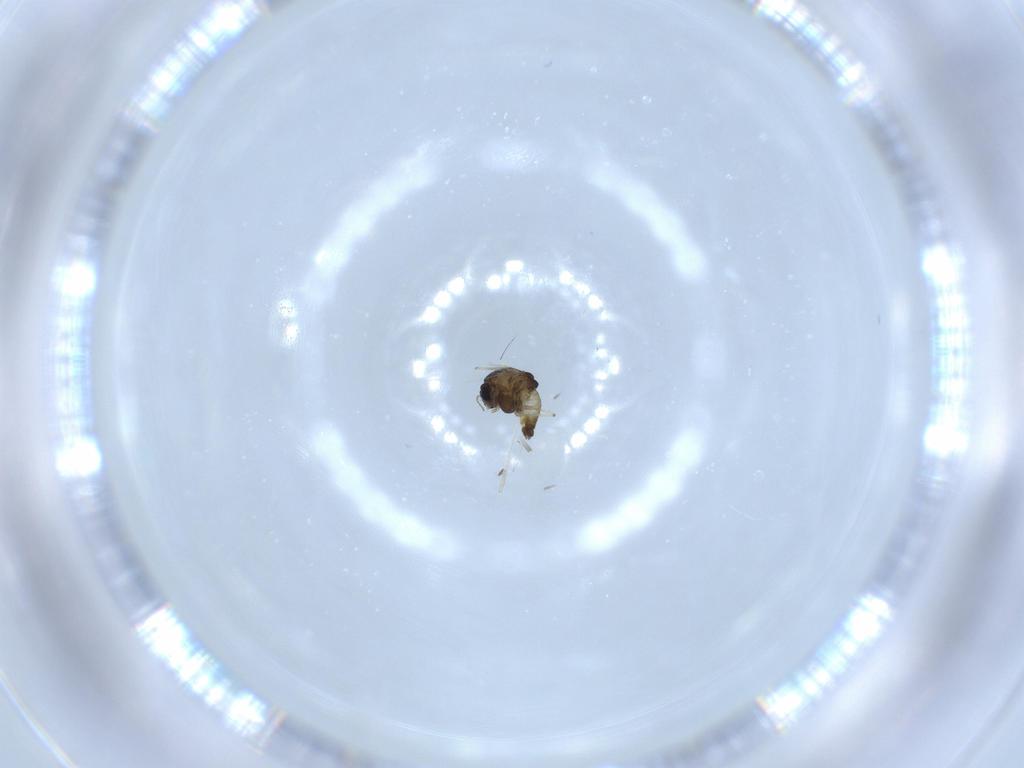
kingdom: Animalia
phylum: Arthropoda
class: Insecta
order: Diptera
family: Chironomidae
